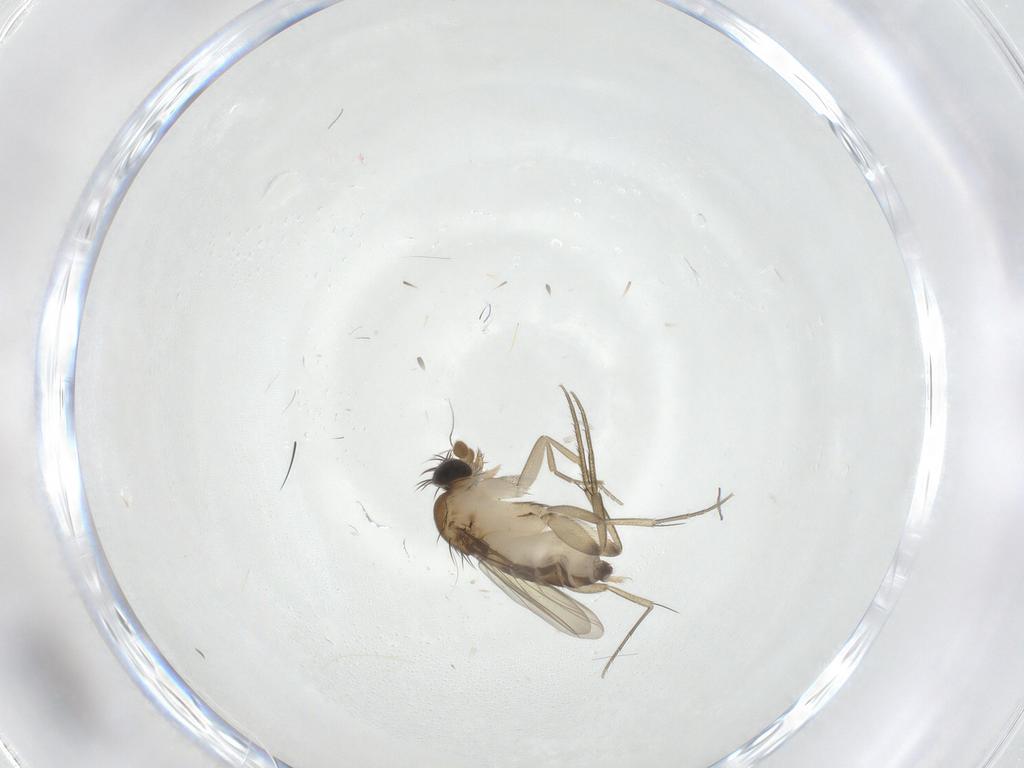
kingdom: Animalia
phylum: Arthropoda
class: Insecta
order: Diptera
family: Phoridae
